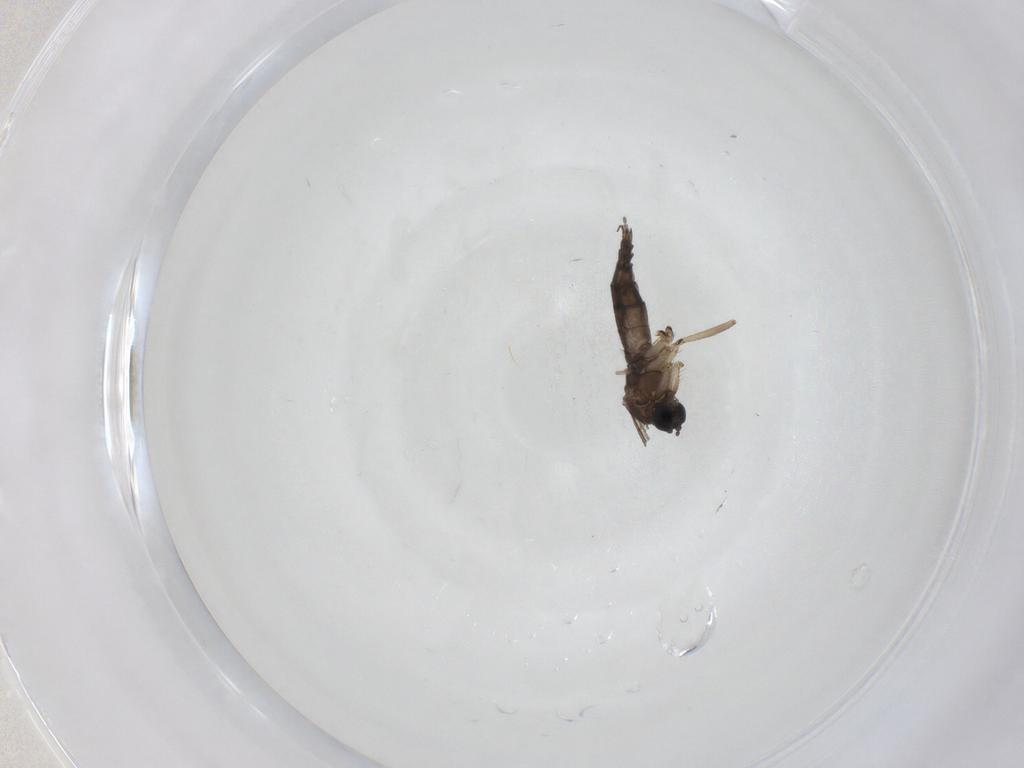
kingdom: Animalia
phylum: Arthropoda
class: Insecta
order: Diptera
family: Sciaridae
